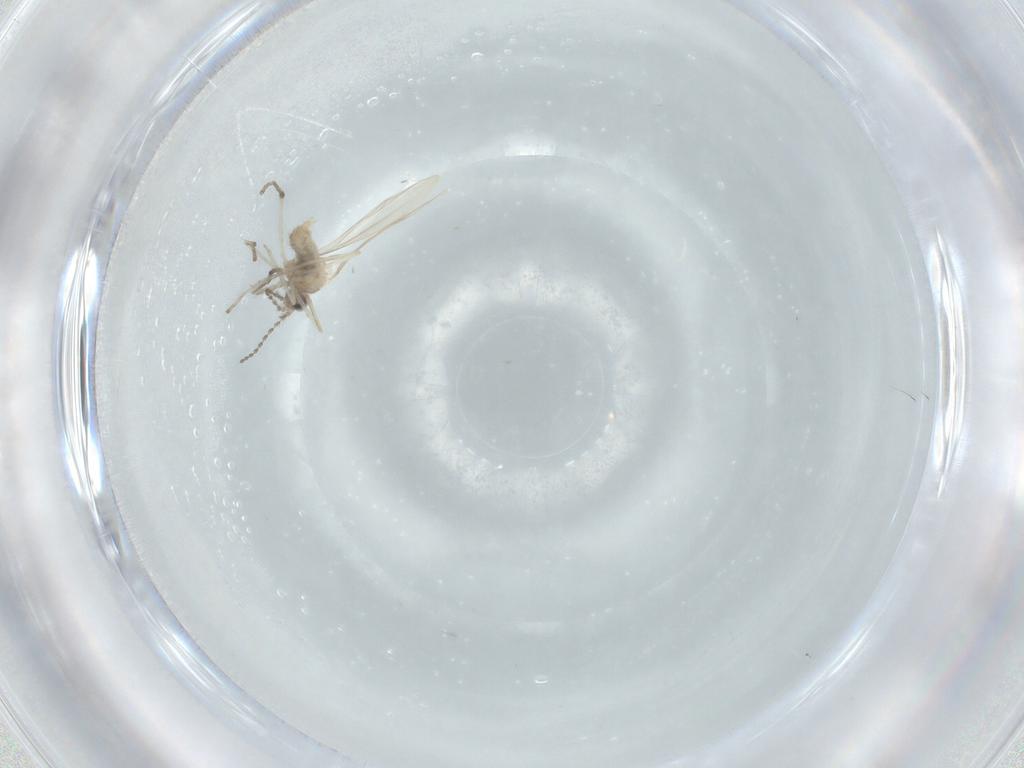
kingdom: Animalia
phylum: Arthropoda
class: Insecta
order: Diptera
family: Cecidomyiidae
